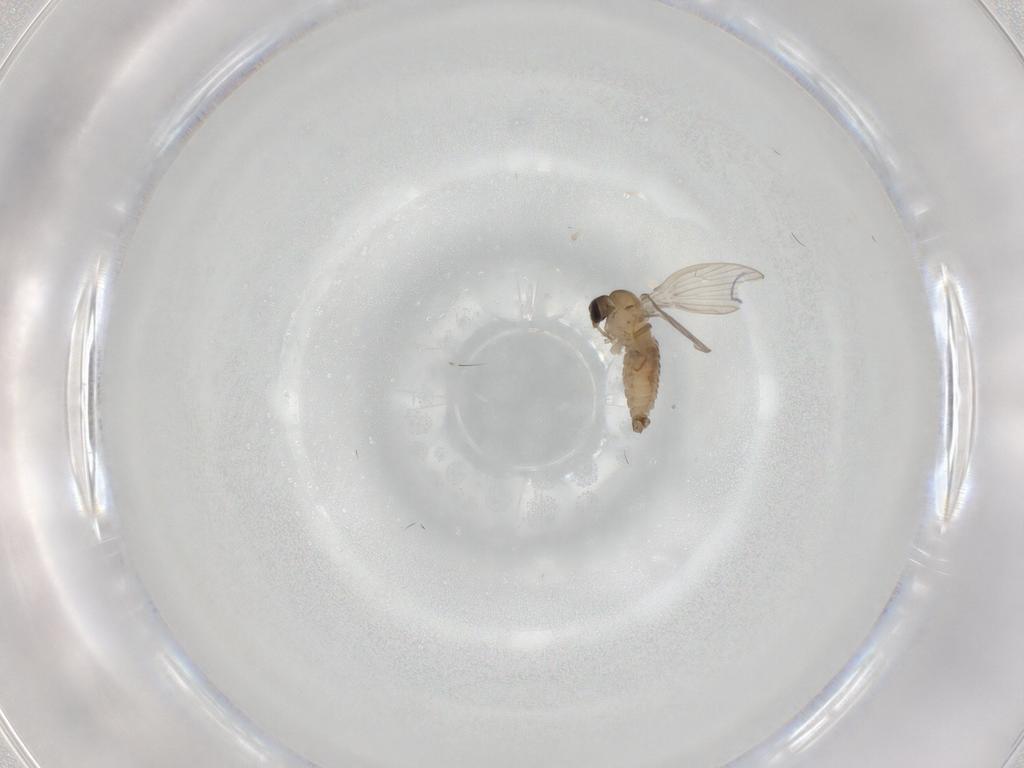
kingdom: Animalia
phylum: Arthropoda
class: Insecta
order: Diptera
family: Psychodidae
